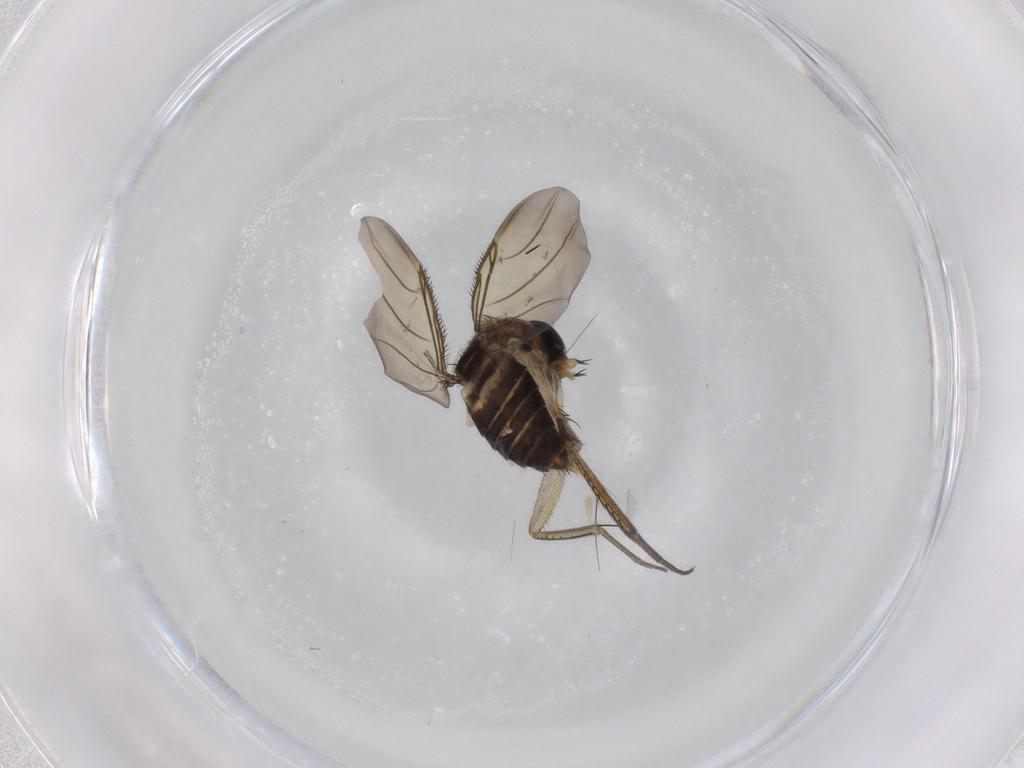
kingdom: Animalia
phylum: Arthropoda
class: Insecta
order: Diptera
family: Phoridae
